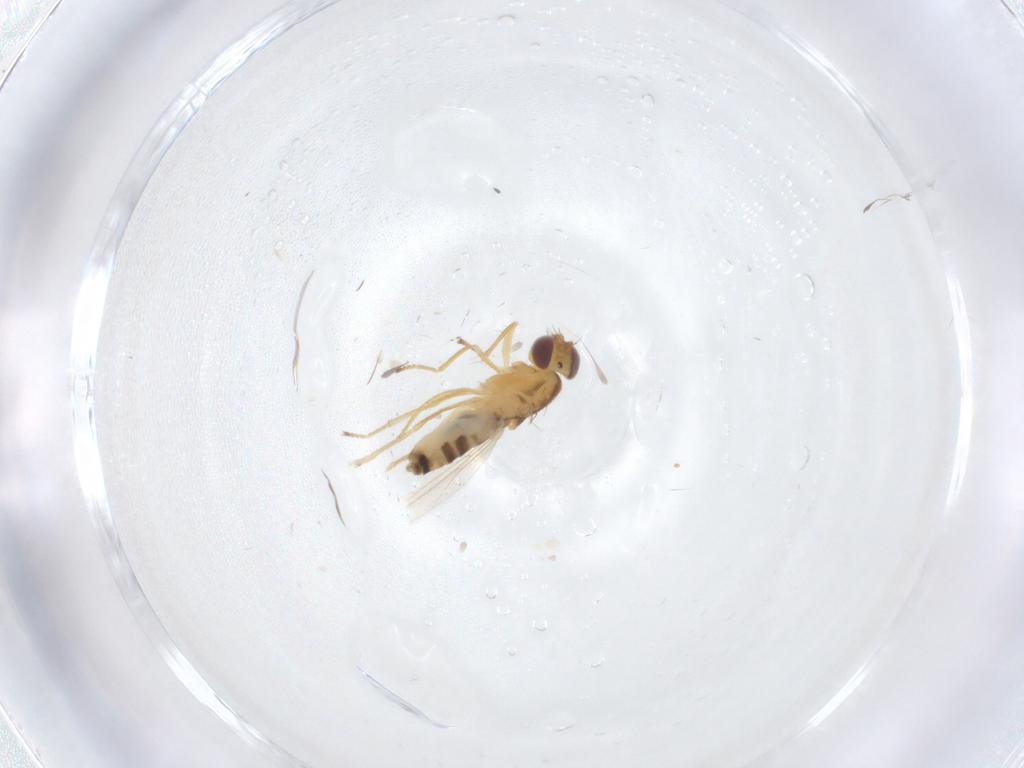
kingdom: Animalia
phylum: Arthropoda
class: Insecta
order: Diptera
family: Periscelididae
